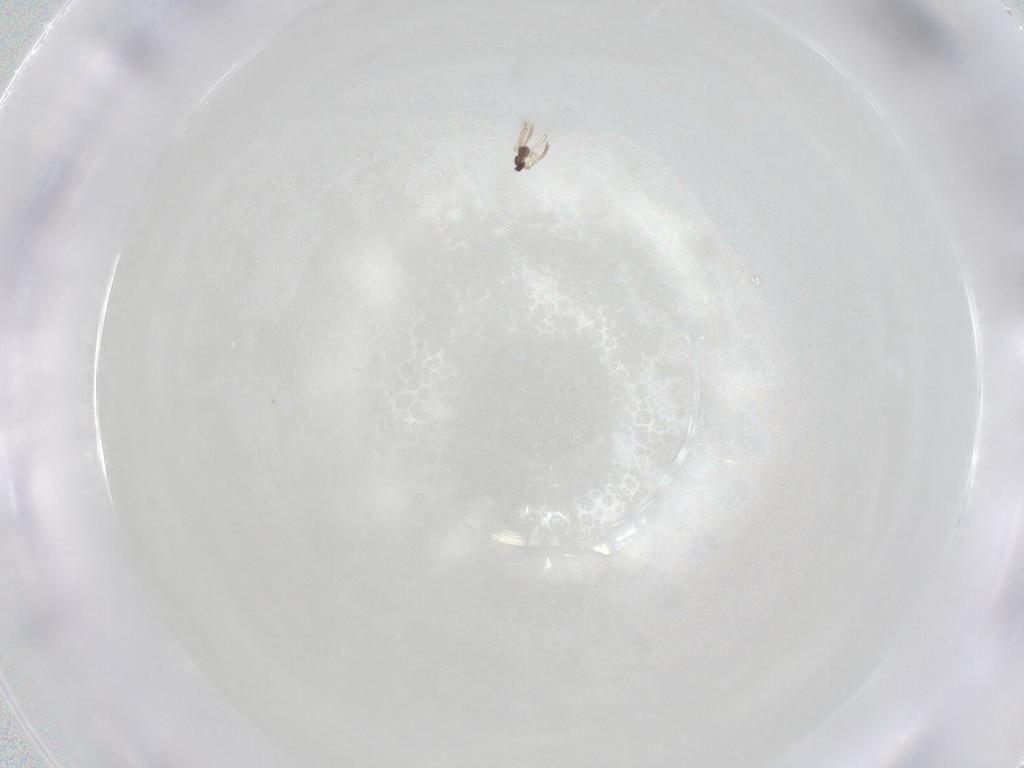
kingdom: Animalia
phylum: Arthropoda
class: Insecta
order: Hymenoptera
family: Mymaridae
